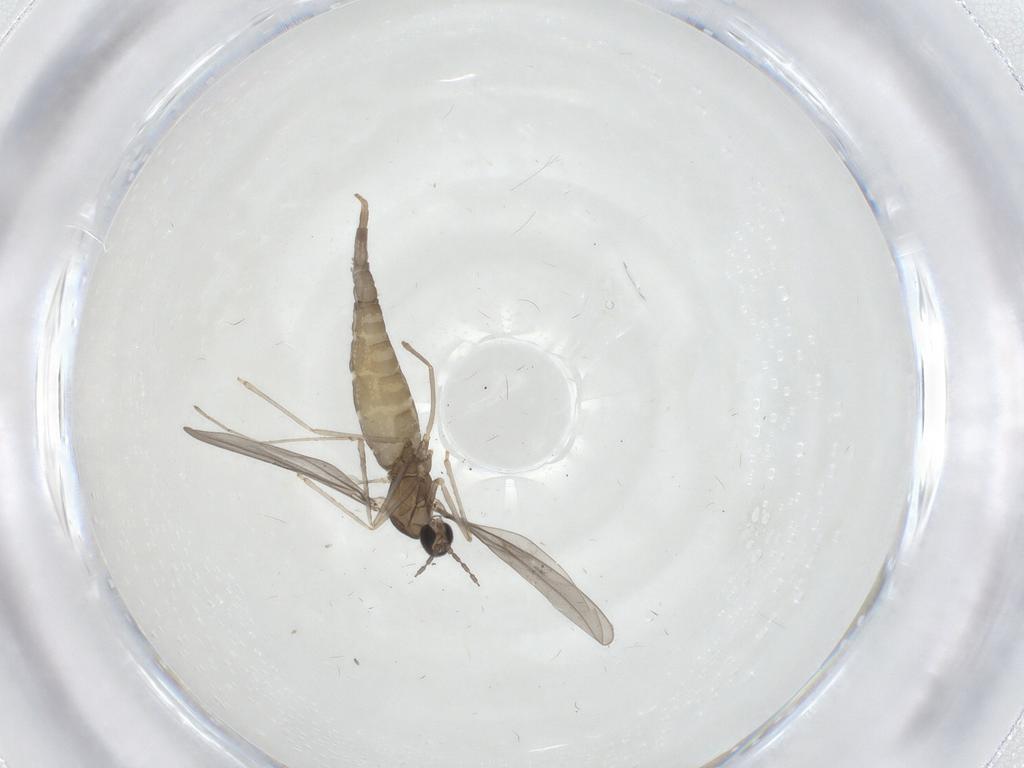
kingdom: Animalia
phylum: Arthropoda
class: Insecta
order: Diptera
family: Cecidomyiidae
